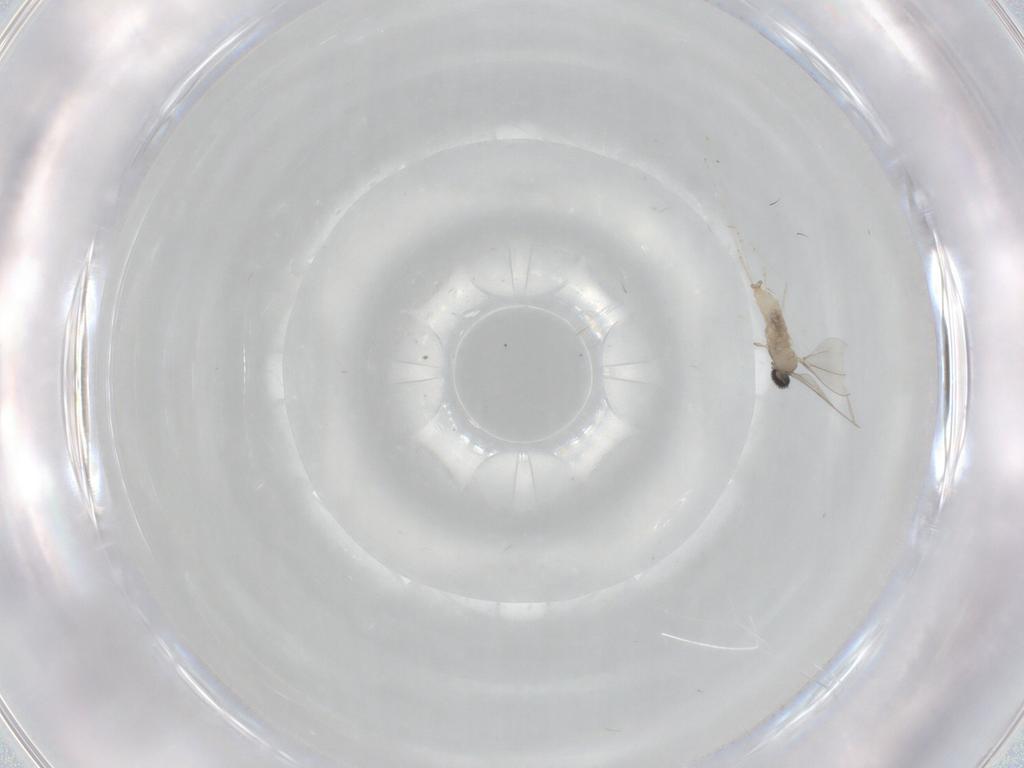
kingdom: Animalia
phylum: Arthropoda
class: Insecta
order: Diptera
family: Cecidomyiidae
